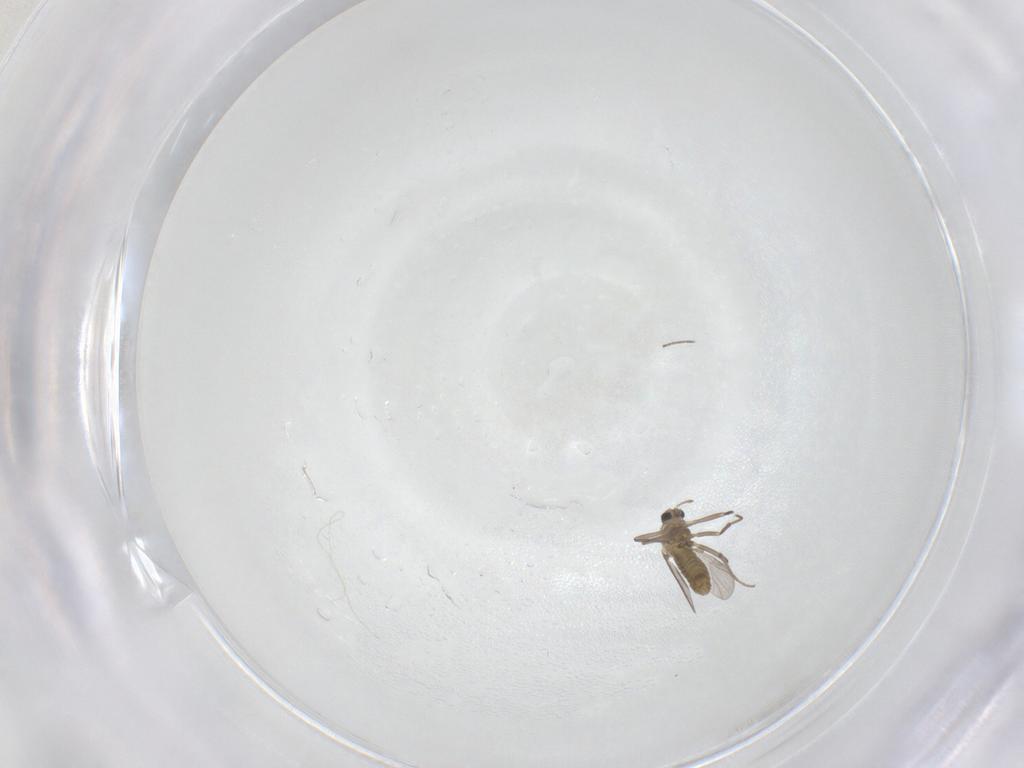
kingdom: Animalia
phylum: Arthropoda
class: Insecta
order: Diptera
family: Chironomidae
